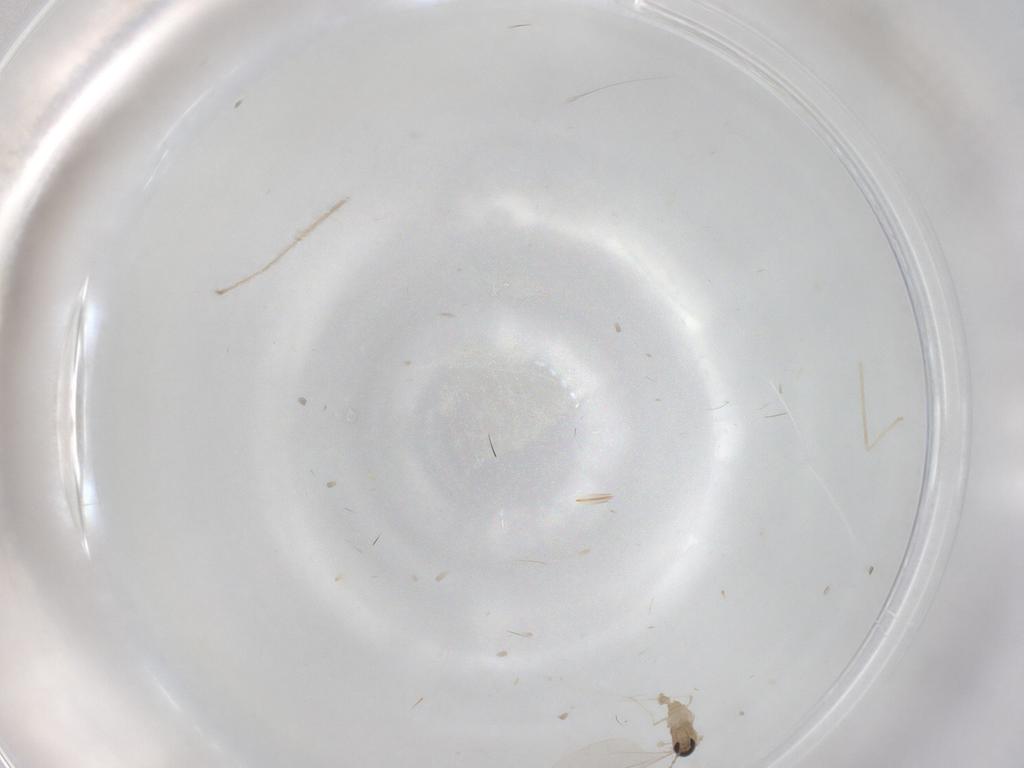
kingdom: Animalia
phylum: Arthropoda
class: Insecta
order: Diptera
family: Cecidomyiidae
